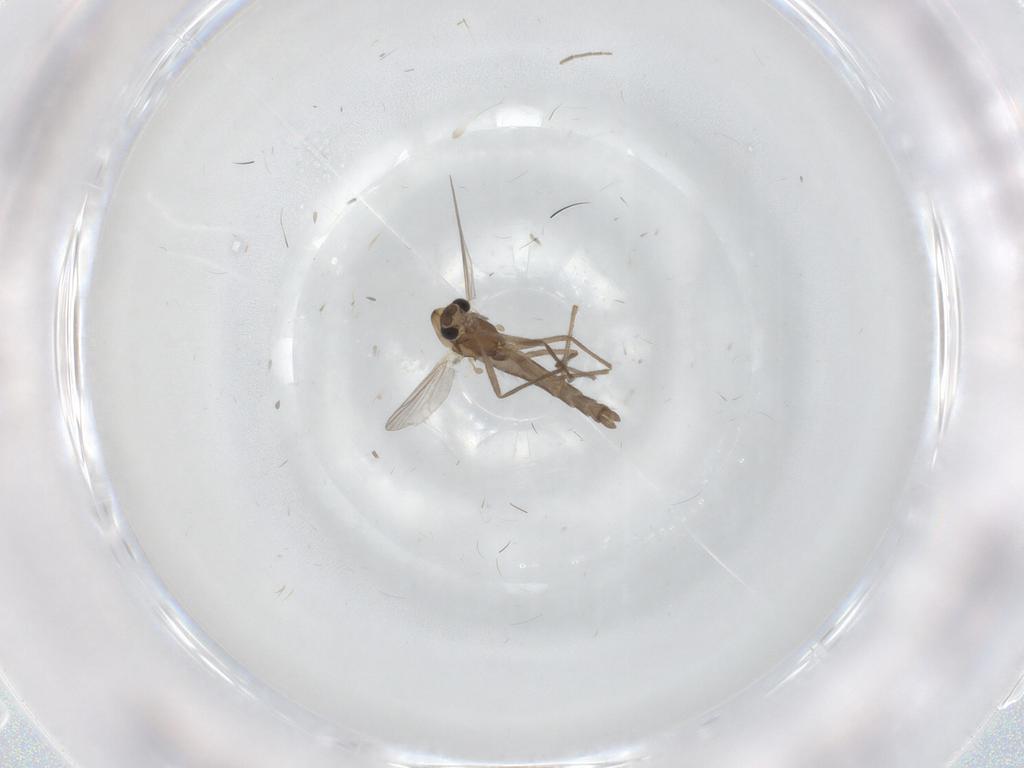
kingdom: Animalia
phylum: Arthropoda
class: Insecta
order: Diptera
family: Chironomidae
